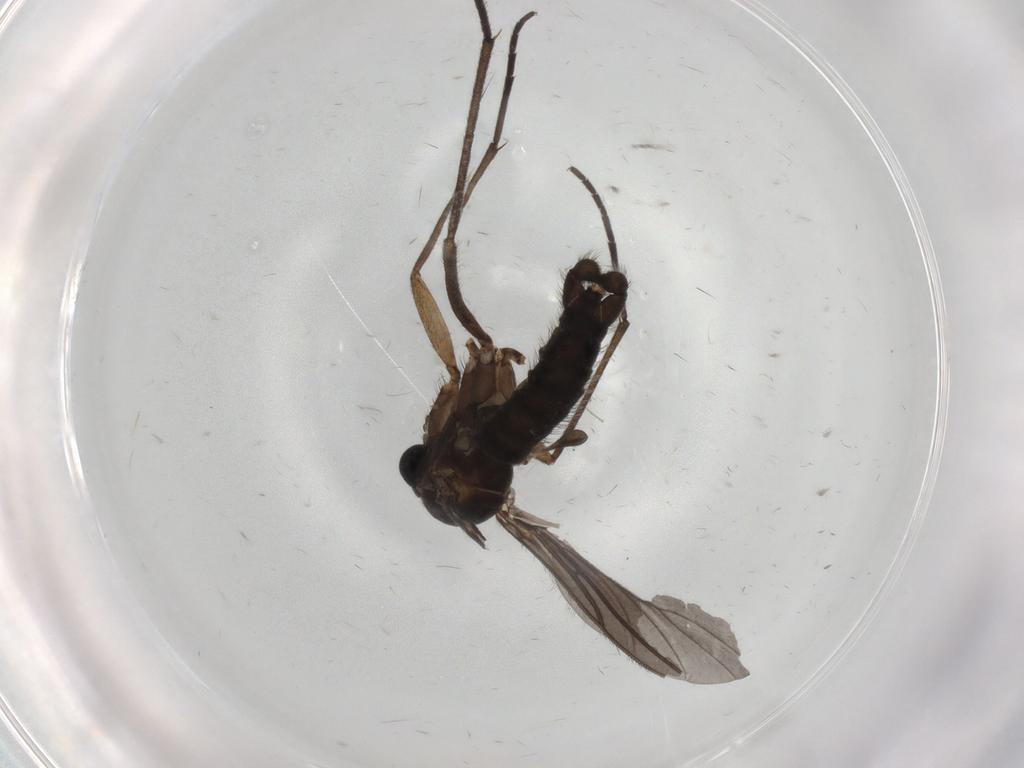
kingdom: Animalia
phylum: Arthropoda
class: Insecta
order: Diptera
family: Sciaridae
